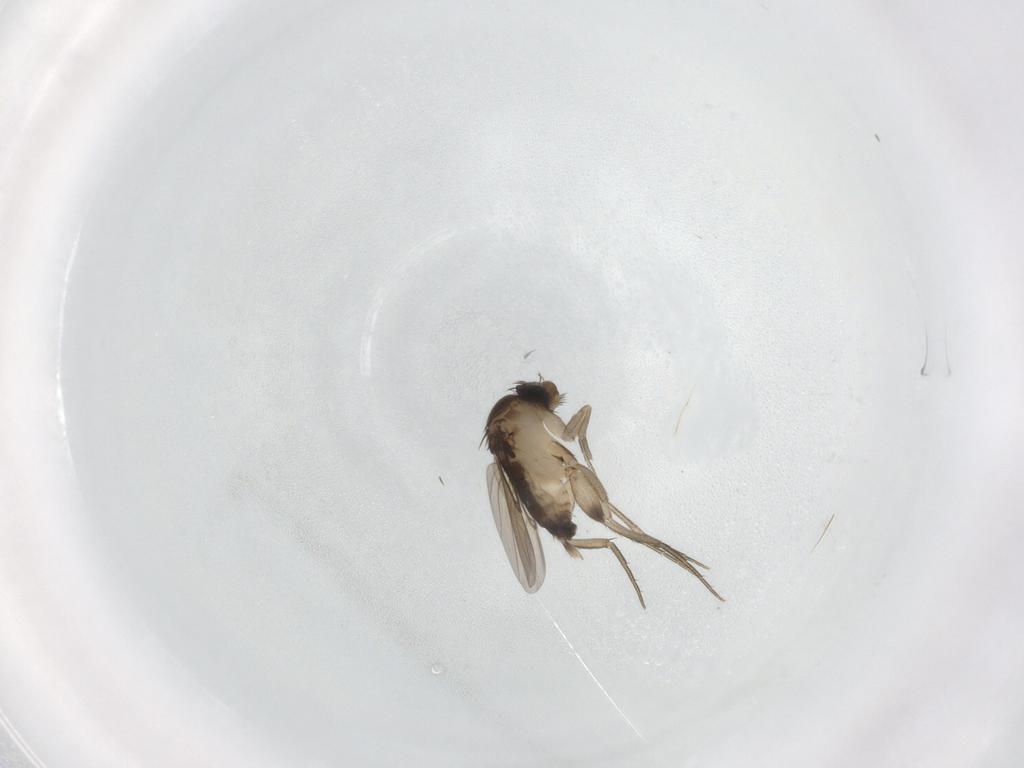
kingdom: Animalia
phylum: Arthropoda
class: Insecta
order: Diptera
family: Phoridae
